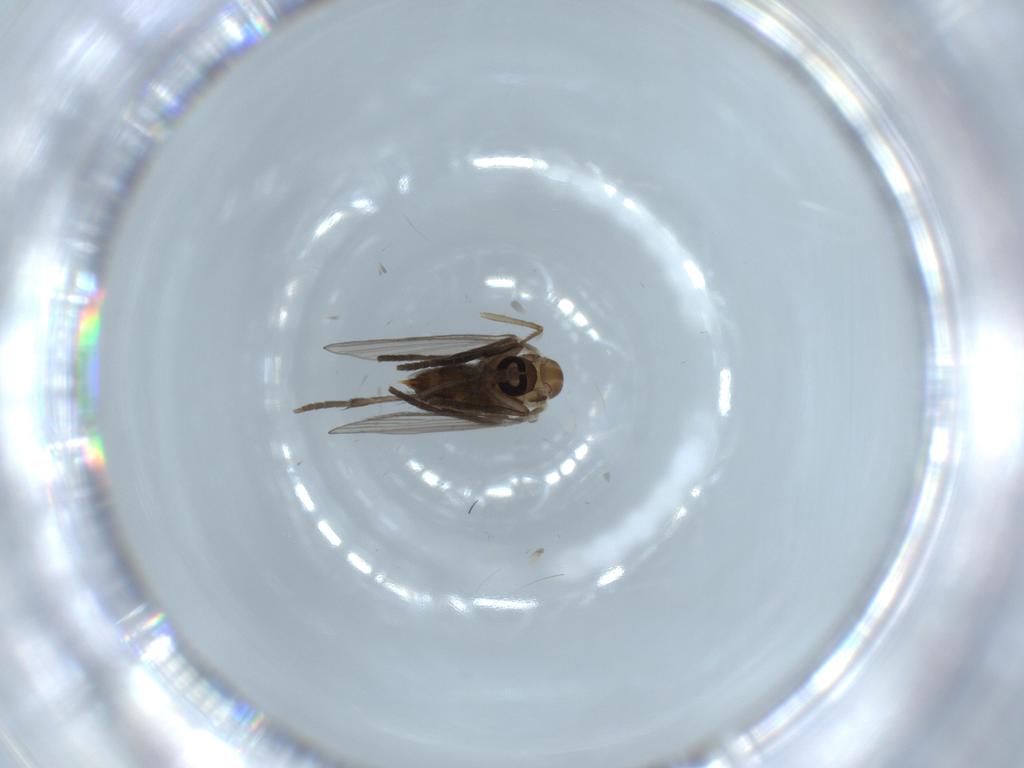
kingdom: Animalia
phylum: Arthropoda
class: Insecta
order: Diptera
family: Psychodidae
